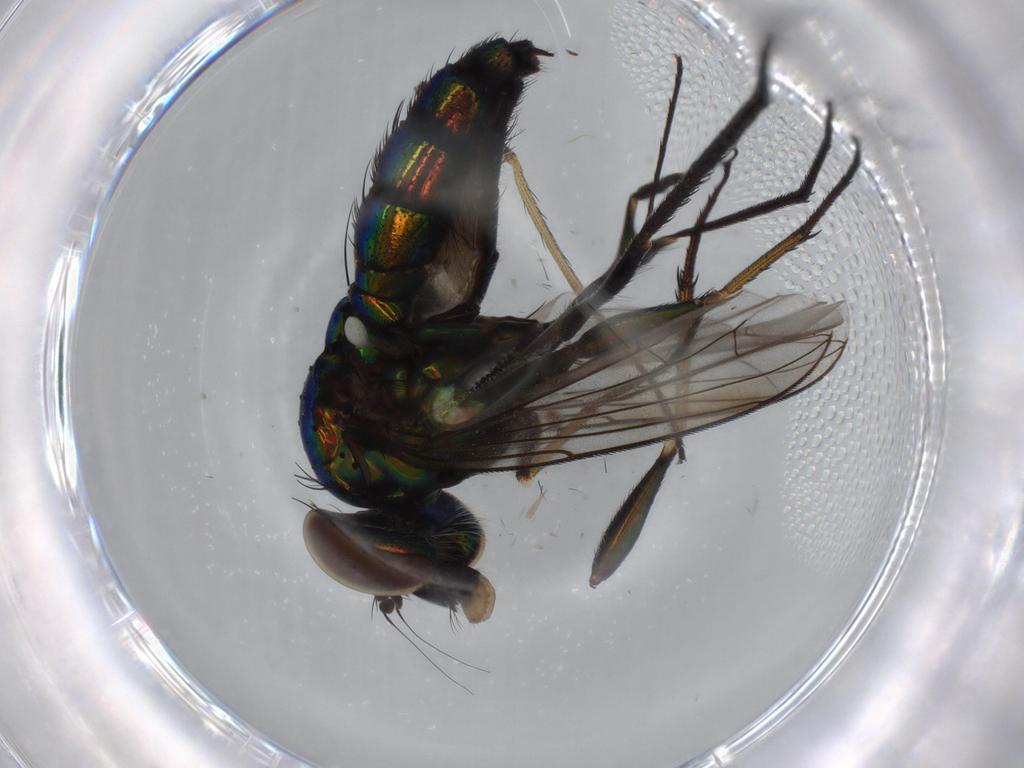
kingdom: Animalia
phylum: Arthropoda
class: Insecta
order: Diptera
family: Dolichopodidae
